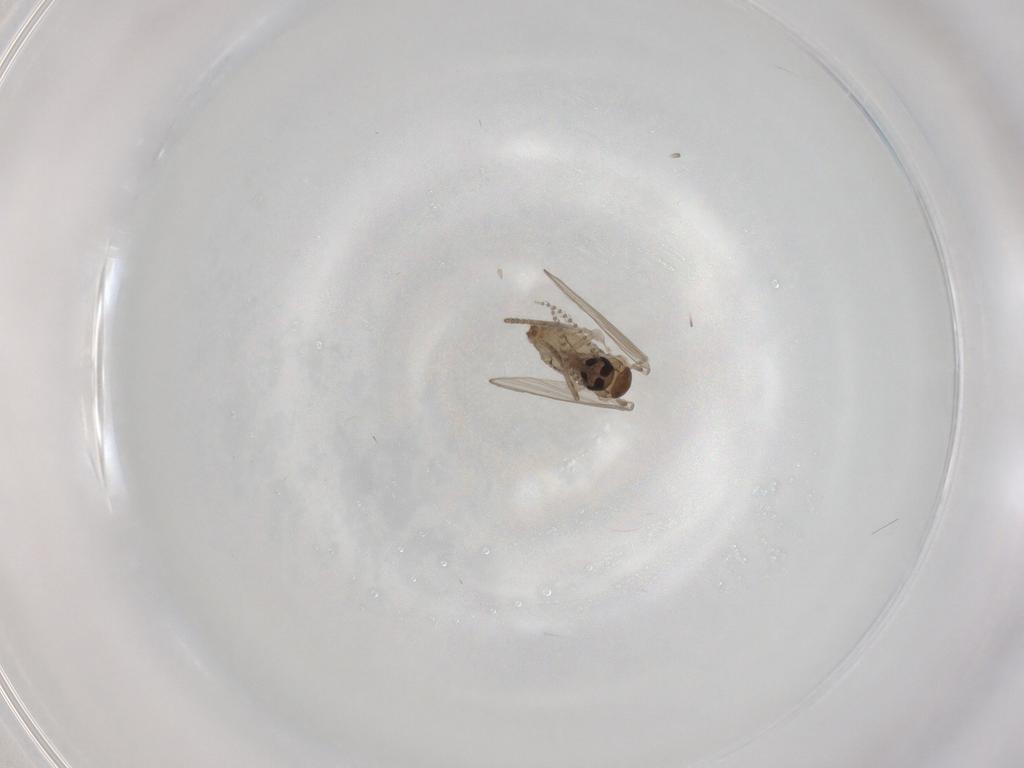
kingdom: Animalia
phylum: Arthropoda
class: Insecta
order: Diptera
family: Psychodidae
